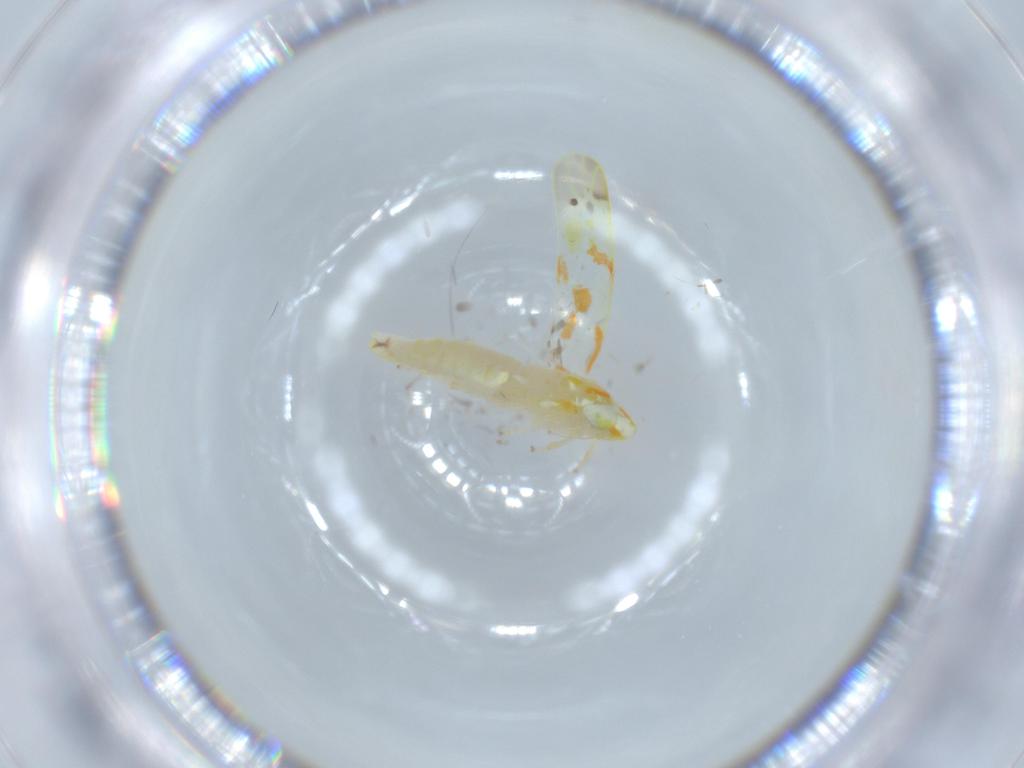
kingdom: Animalia
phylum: Arthropoda
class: Insecta
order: Hemiptera
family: Cicadellidae
